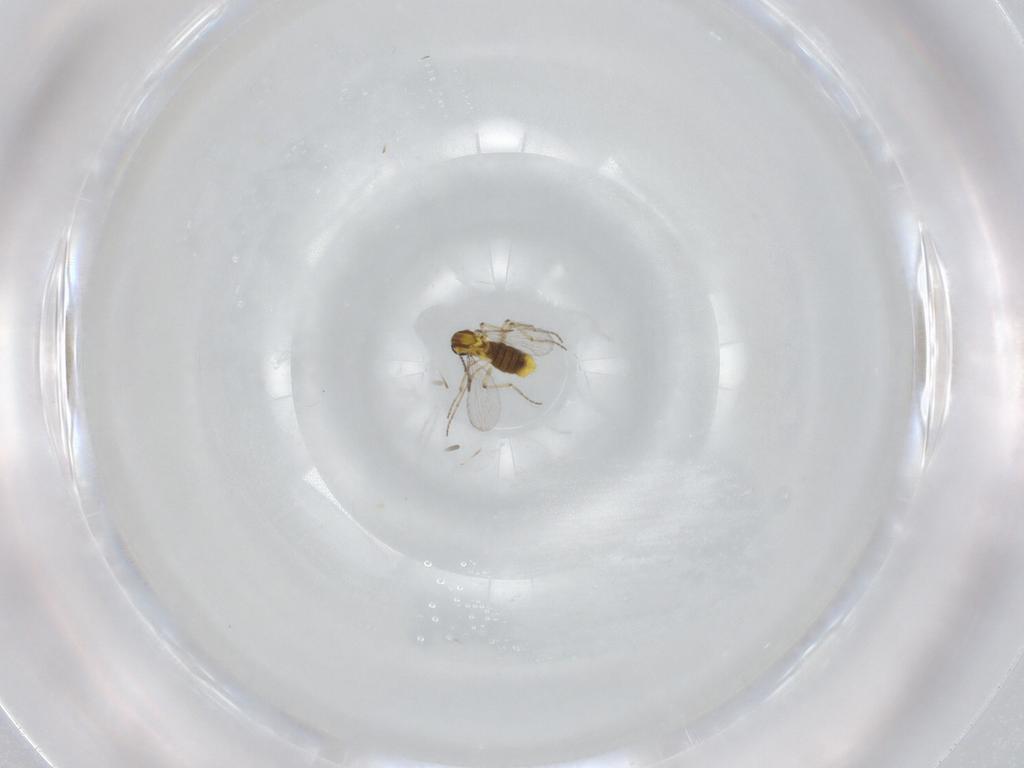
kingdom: Animalia
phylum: Arthropoda
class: Insecta
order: Diptera
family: Ceratopogonidae
